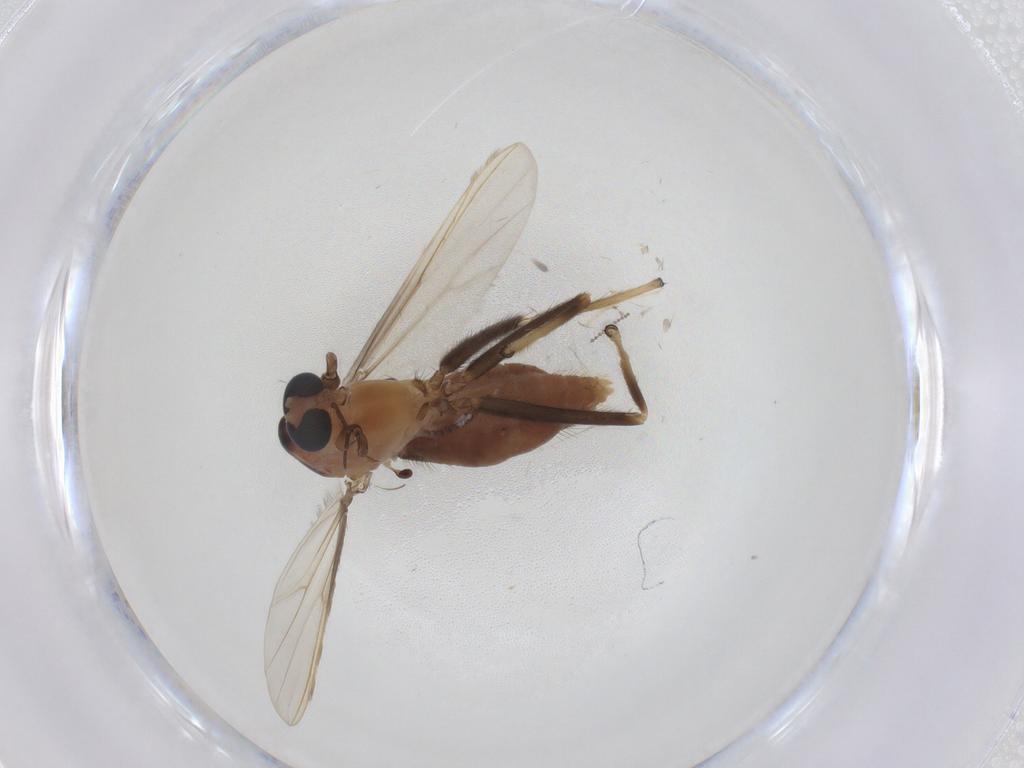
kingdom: Animalia
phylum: Arthropoda
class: Insecta
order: Diptera
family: Chironomidae
